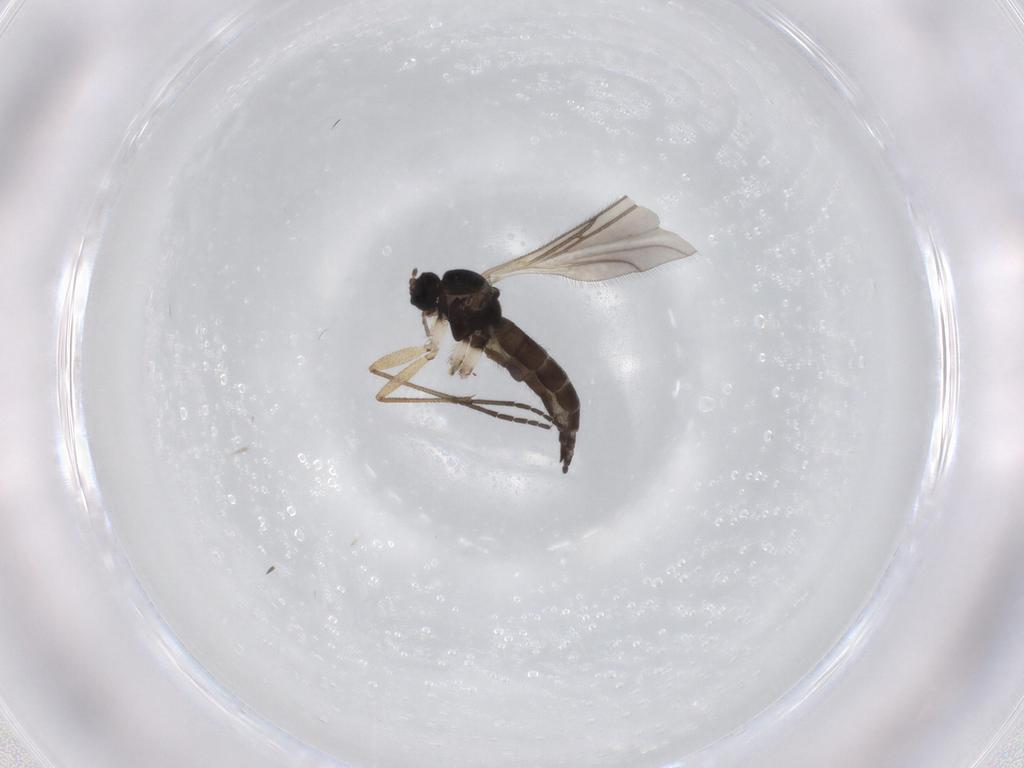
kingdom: Animalia
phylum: Arthropoda
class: Insecta
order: Diptera
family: Sciaridae
